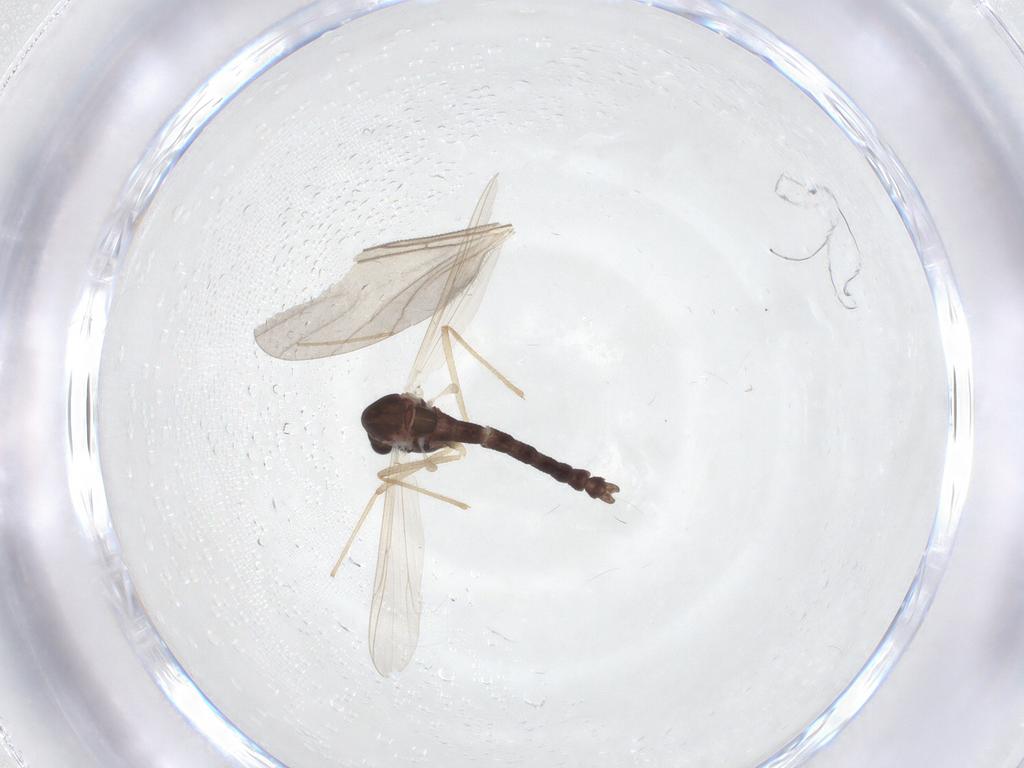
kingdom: Animalia
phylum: Arthropoda
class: Insecta
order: Diptera
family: Chironomidae
